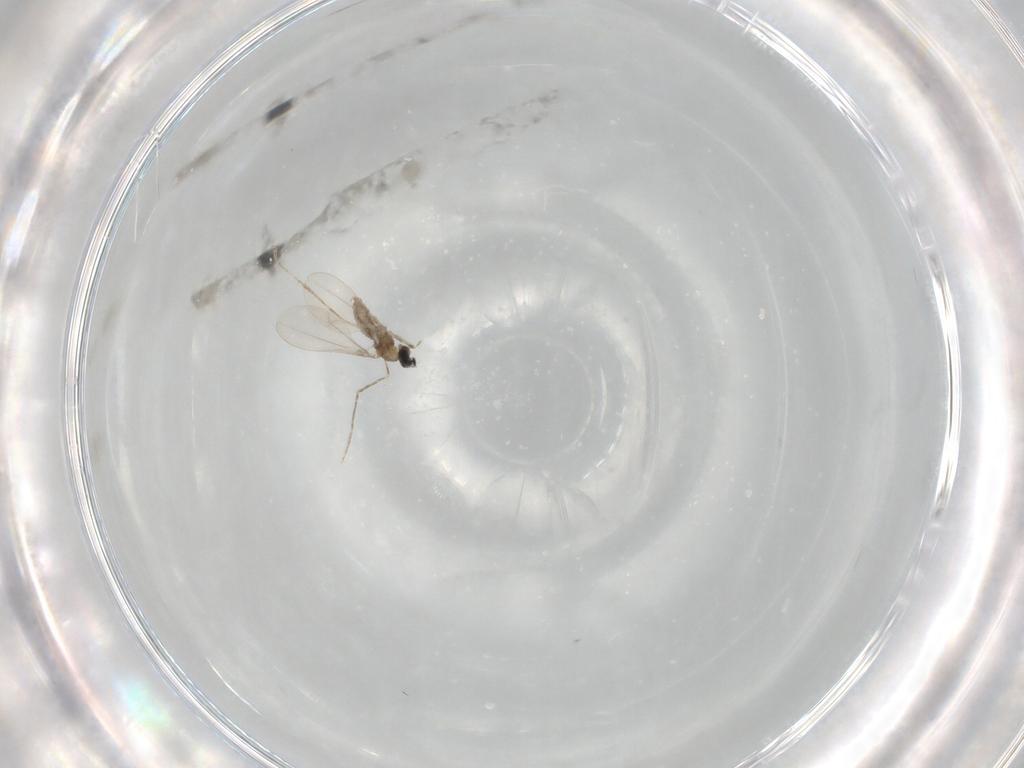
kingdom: Animalia
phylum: Arthropoda
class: Insecta
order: Diptera
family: Cecidomyiidae
